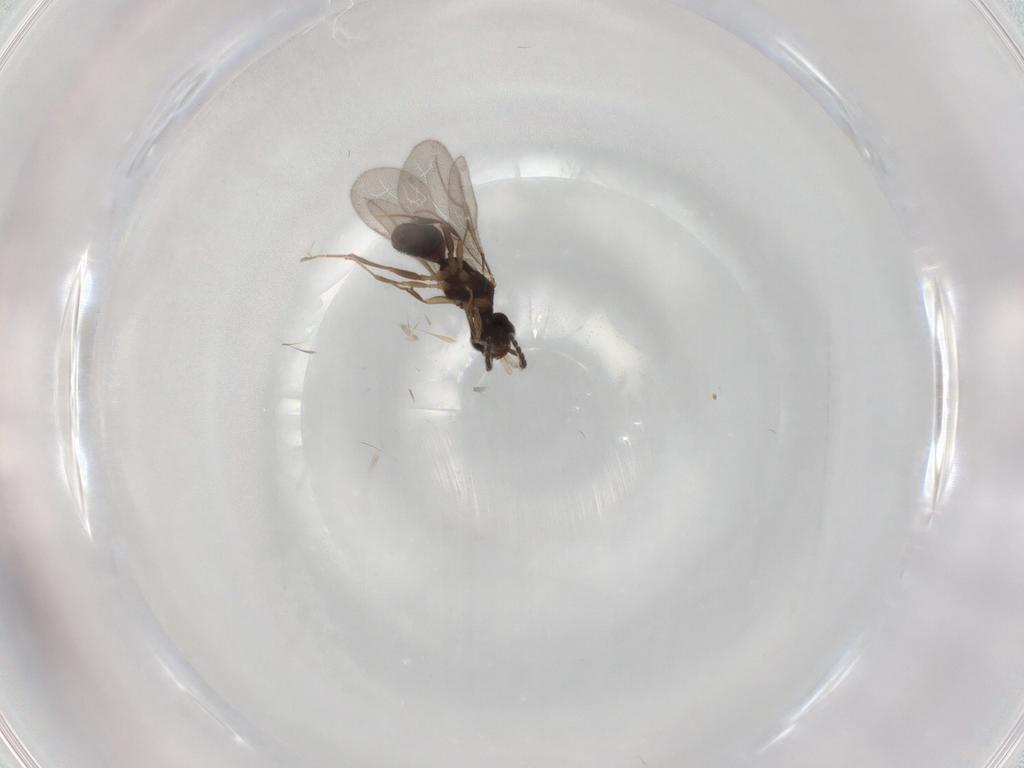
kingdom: Animalia
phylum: Arthropoda
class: Insecta
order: Hymenoptera
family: Bethylidae
